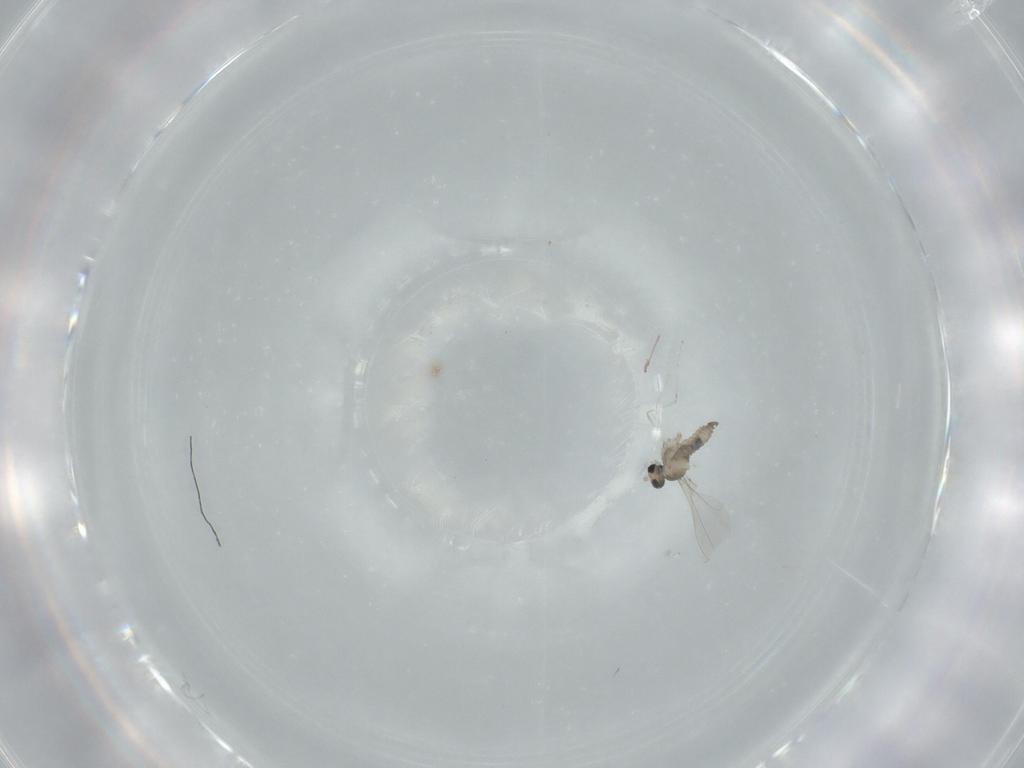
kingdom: Animalia
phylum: Arthropoda
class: Insecta
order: Diptera
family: Cecidomyiidae
